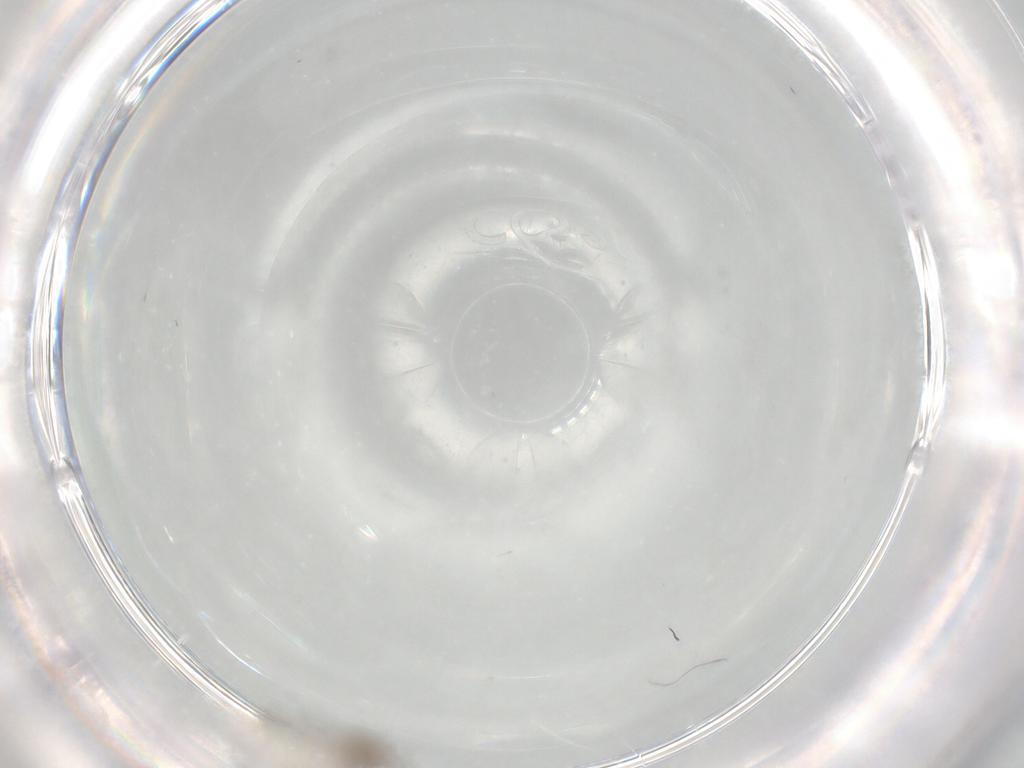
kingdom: Animalia
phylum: Arthropoda
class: Insecta
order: Diptera
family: Cecidomyiidae
